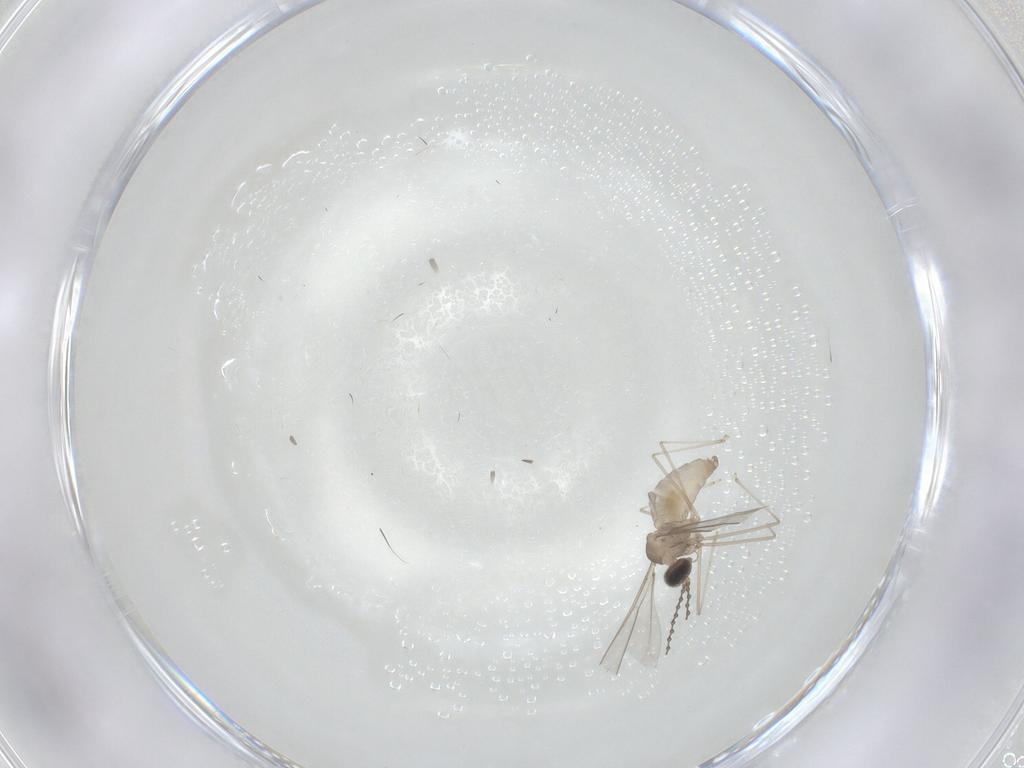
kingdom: Animalia
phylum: Arthropoda
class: Insecta
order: Diptera
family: Cecidomyiidae
